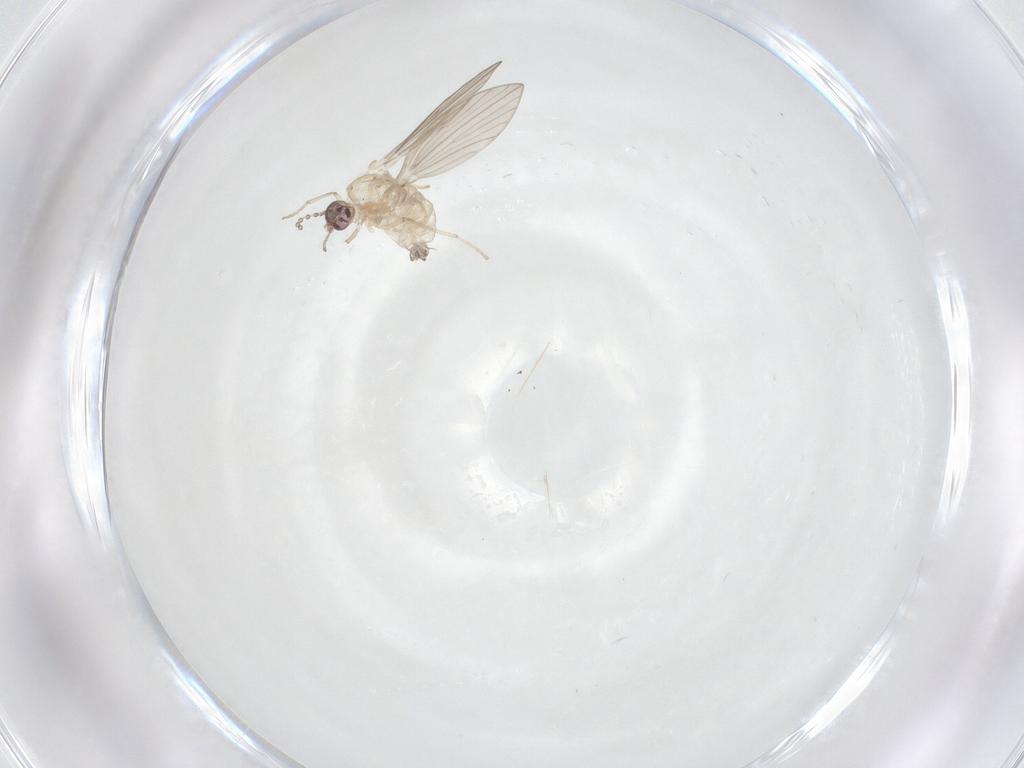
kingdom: Animalia
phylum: Arthropoda
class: Insecta
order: Diptera
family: Psychodidae
